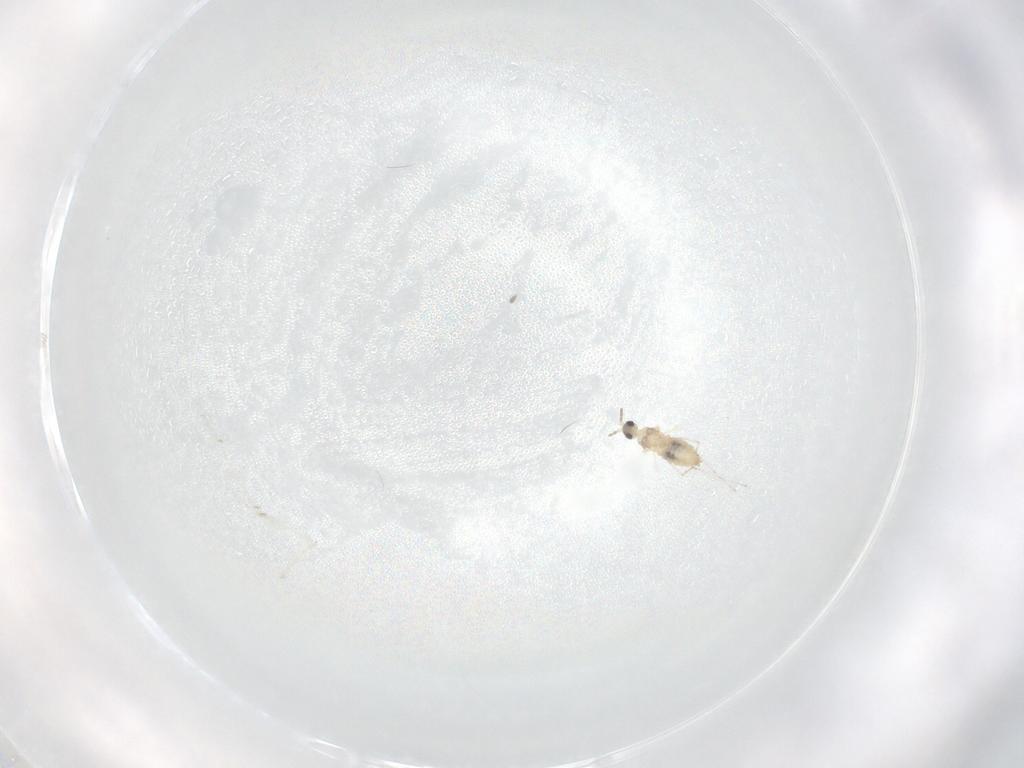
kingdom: Animalia
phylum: Arthropoda
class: Insecta
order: Diptera
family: Cecidomyiidae
